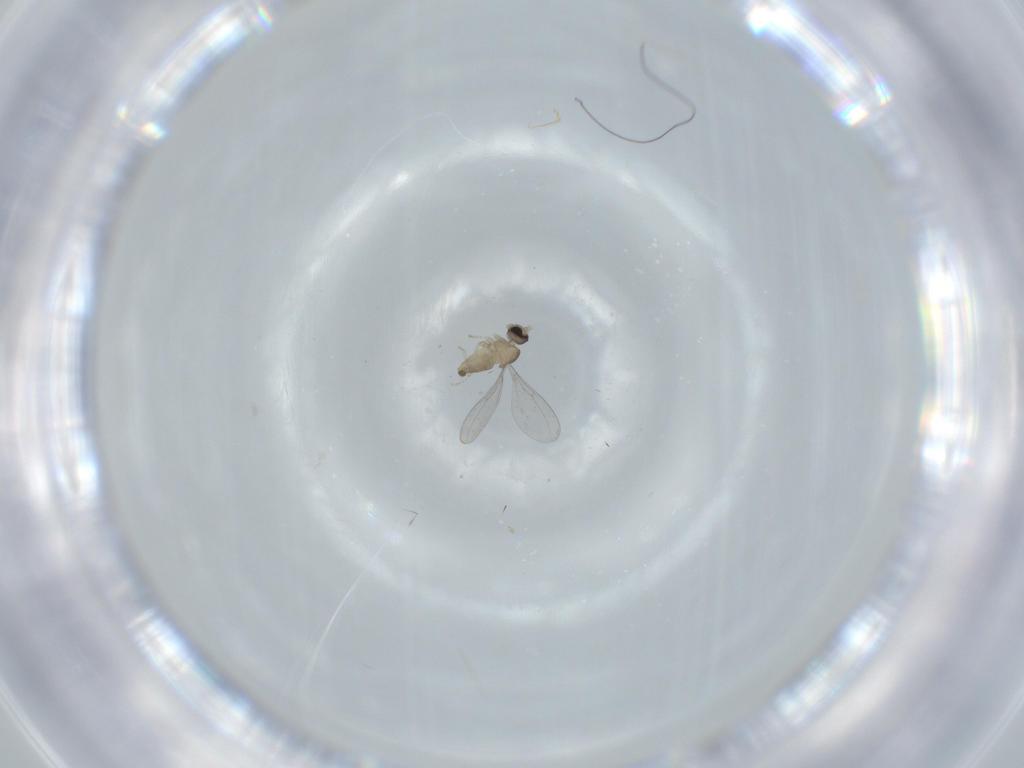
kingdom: Animalia
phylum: Arthropoda
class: Insecta
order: Diptera
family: Cecidomyiidae
